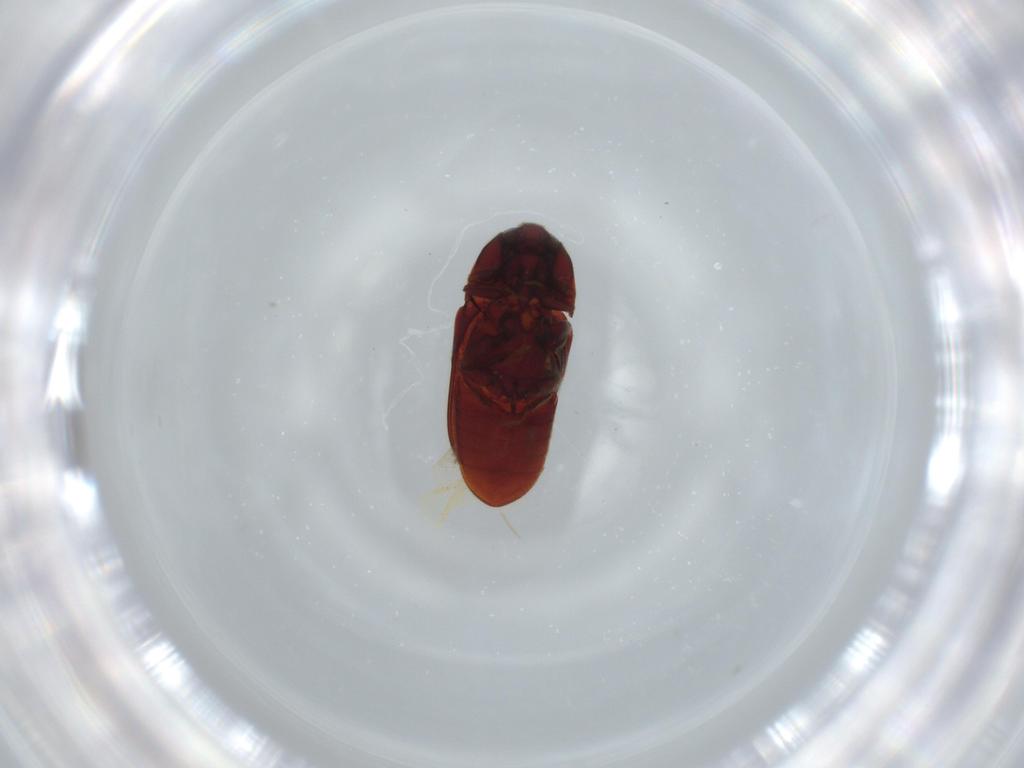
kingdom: Animalia
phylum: Arthropoda
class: Insecta
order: Coleoptera
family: Throscidae
